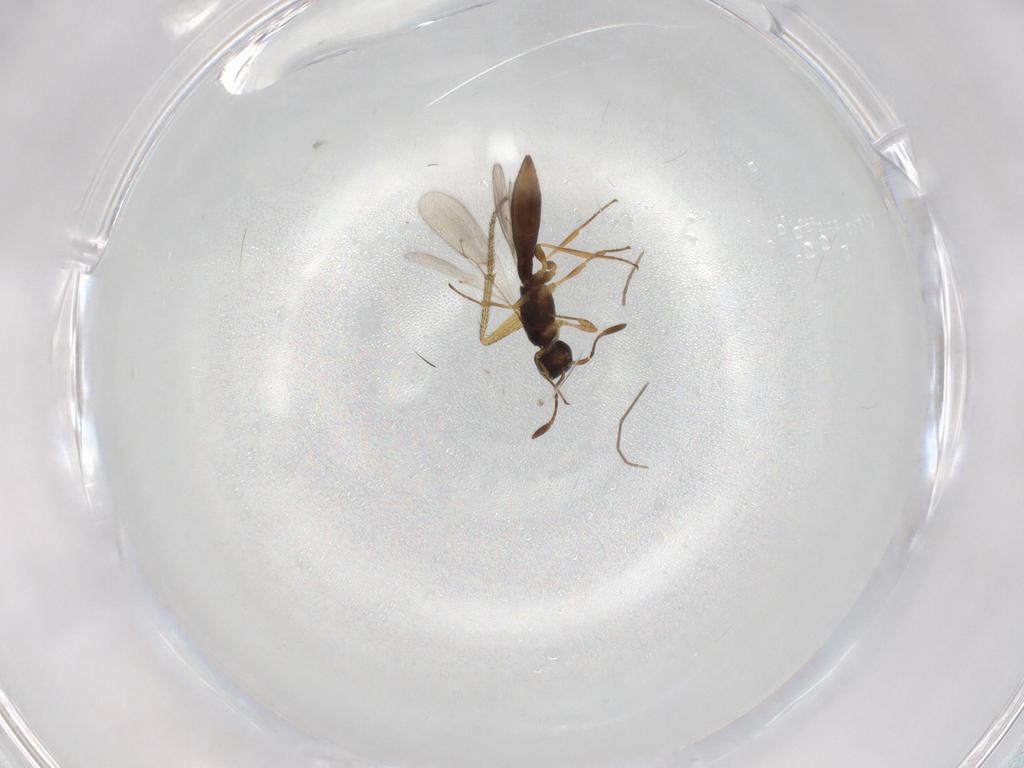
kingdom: Animalia
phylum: Arthropoda
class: Insecta
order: Hymenoptera
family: Scelionidae
